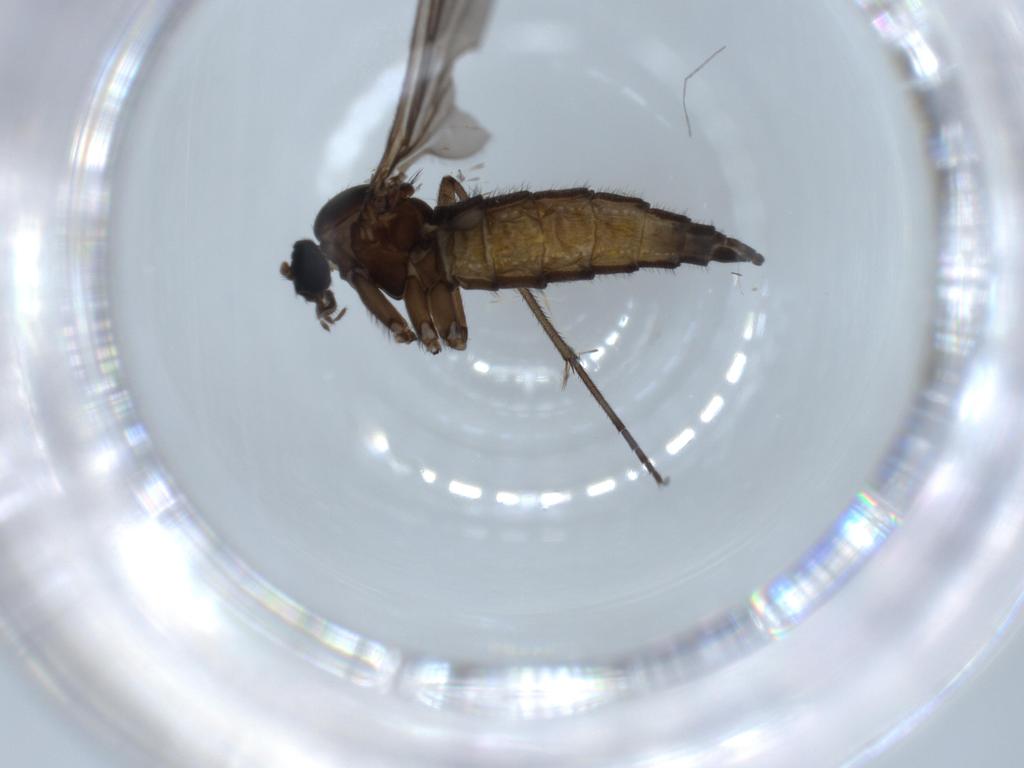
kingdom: Animalia
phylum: Arthropoda
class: Insecta
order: Diptera
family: Sciaridae
